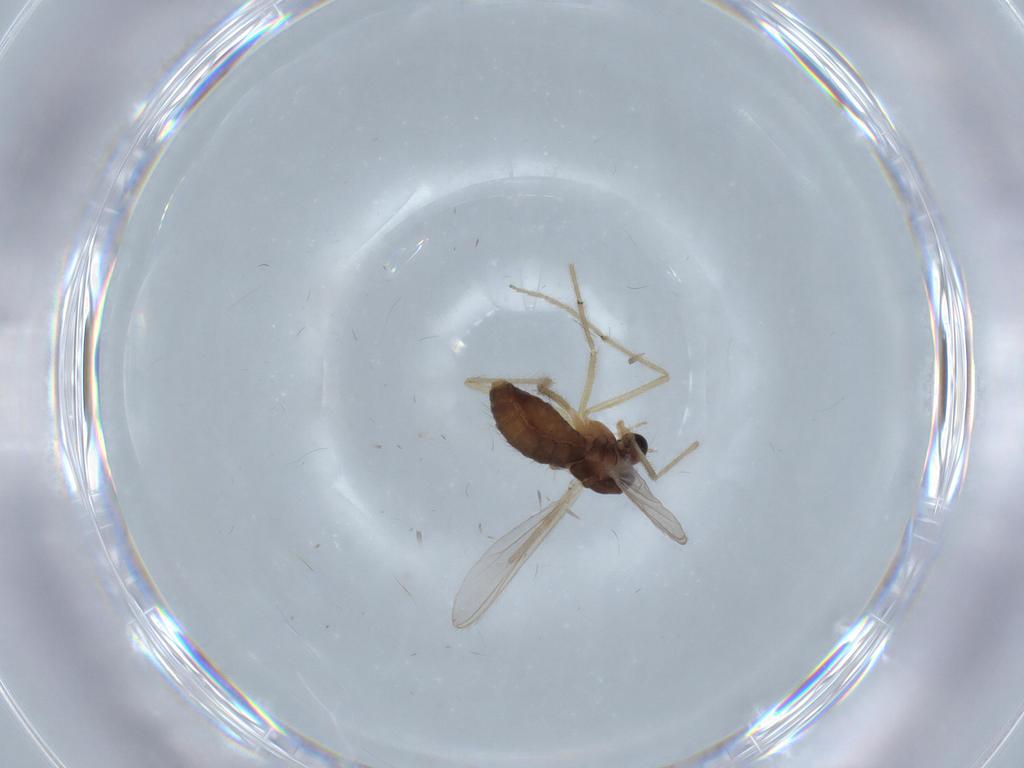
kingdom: Animalia
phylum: Arthropoda
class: Insecta
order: Diptera
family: Chironomidae
